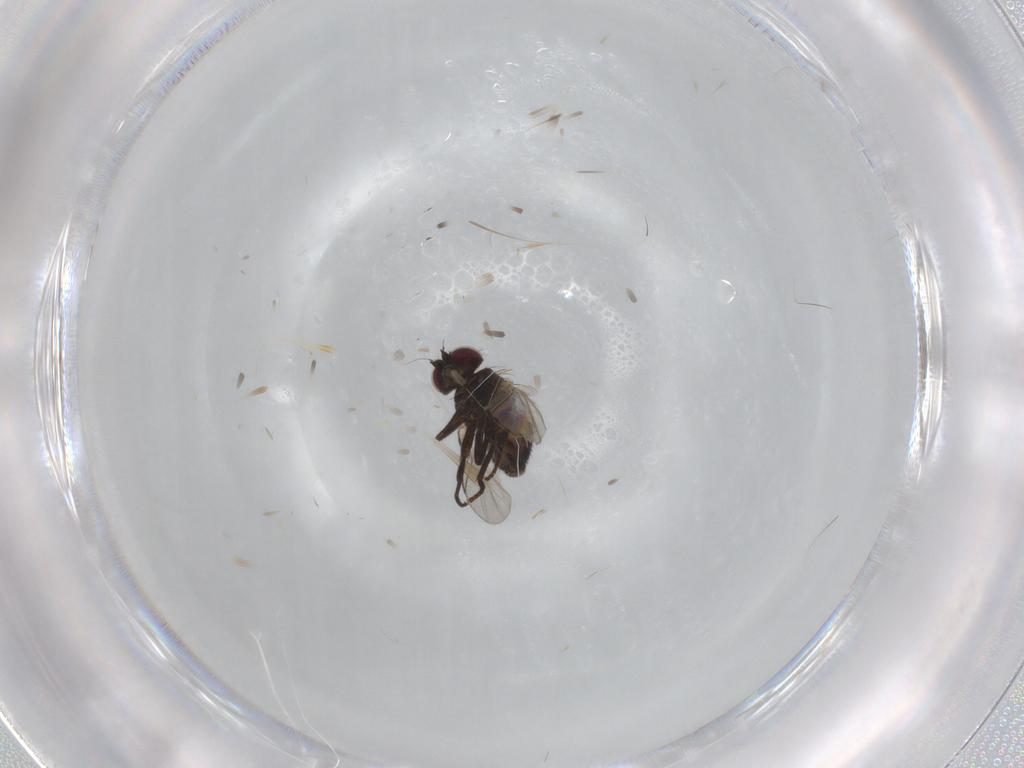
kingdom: Animalia
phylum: Arthropoda
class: Insecta
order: Diptera
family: Agromyzidae
